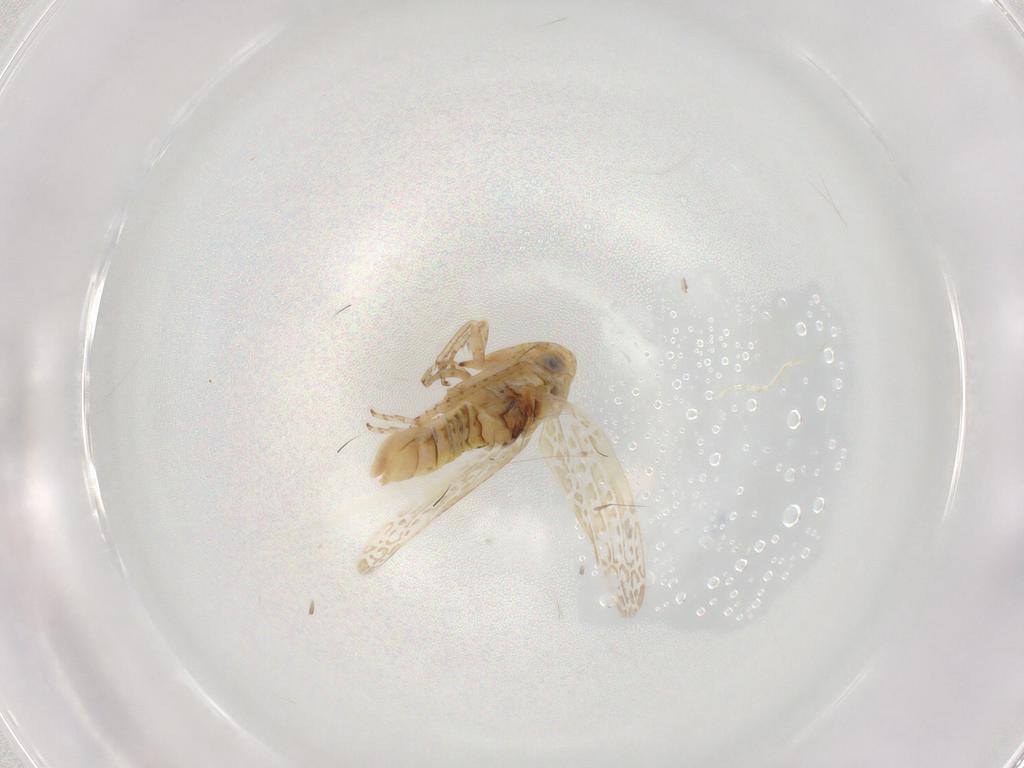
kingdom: Animalia
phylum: Arthropoda
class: Insecta
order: Hemiptera
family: Cicadellidae
